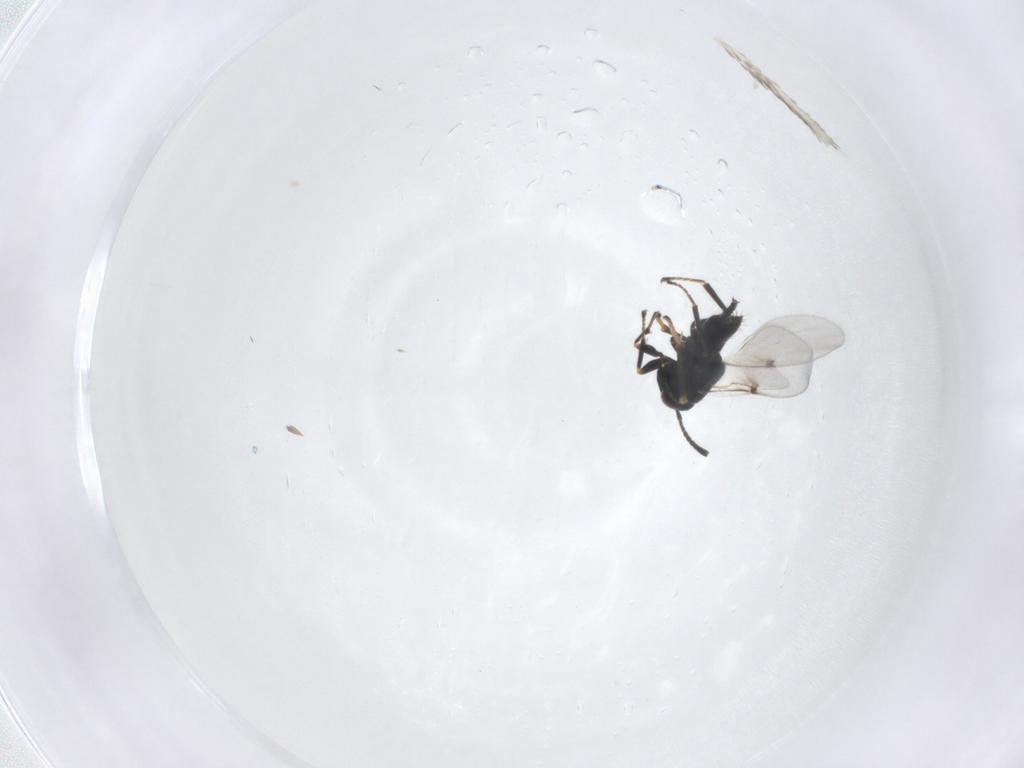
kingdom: Animalia
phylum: Arthropoda
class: Insecta
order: Hymenoptera
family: Encyrtidae
